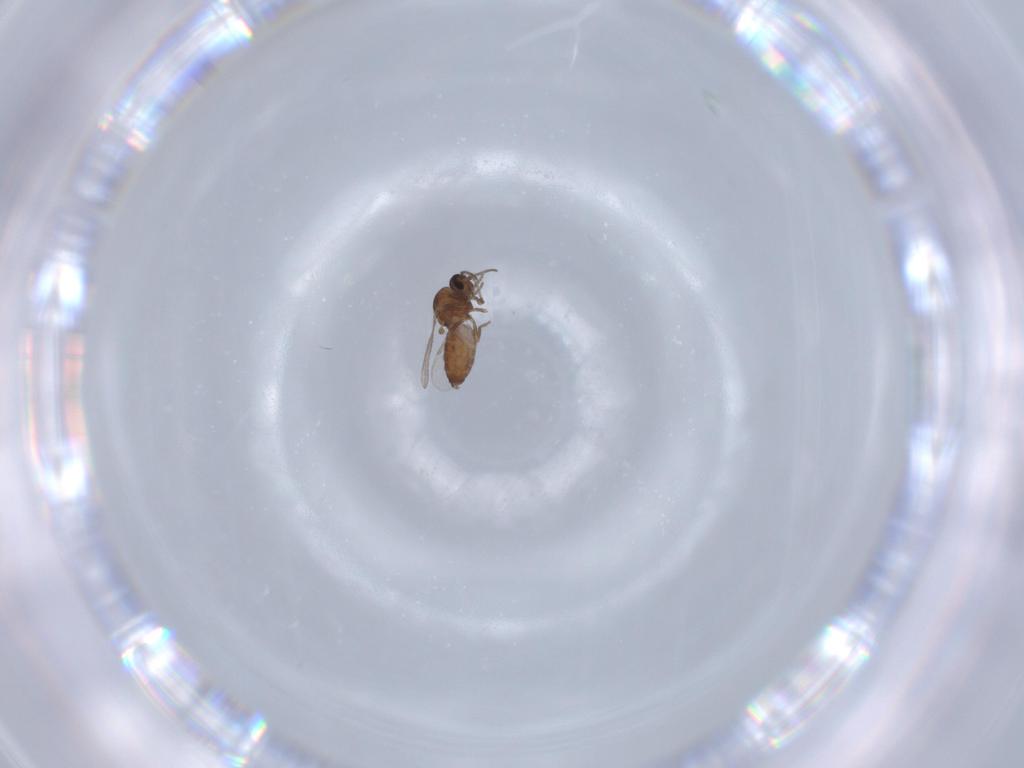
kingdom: Animalia
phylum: Arthropoda
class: Insecta
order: Diptera
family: Ceratopogonidae
